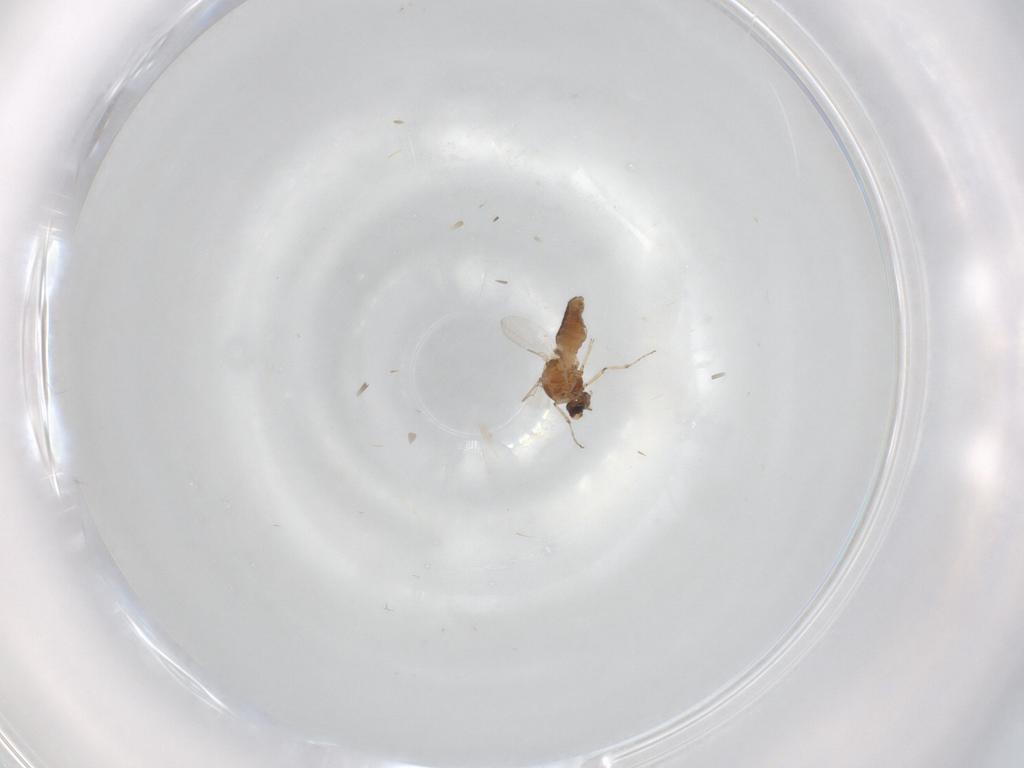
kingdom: Animalia
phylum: Arthropoda
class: Insecta
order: Diptera
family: Ceratopogonidae
